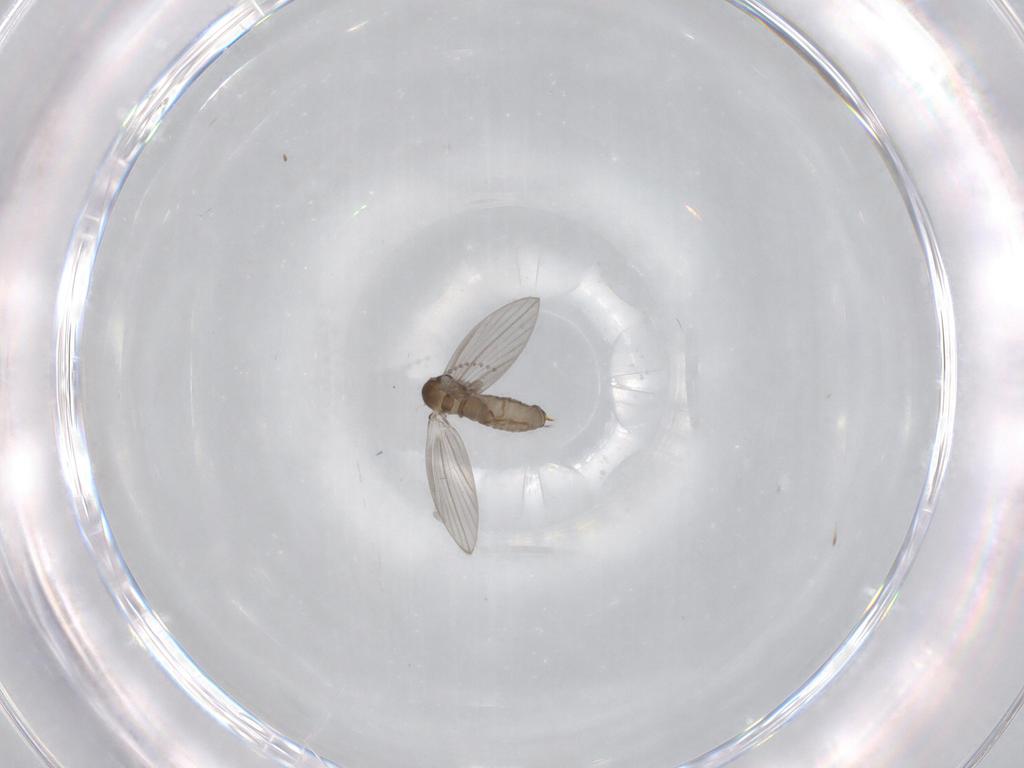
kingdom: Animalia
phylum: Arthropoda
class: Insecta
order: Diptera
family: Psychodidae
